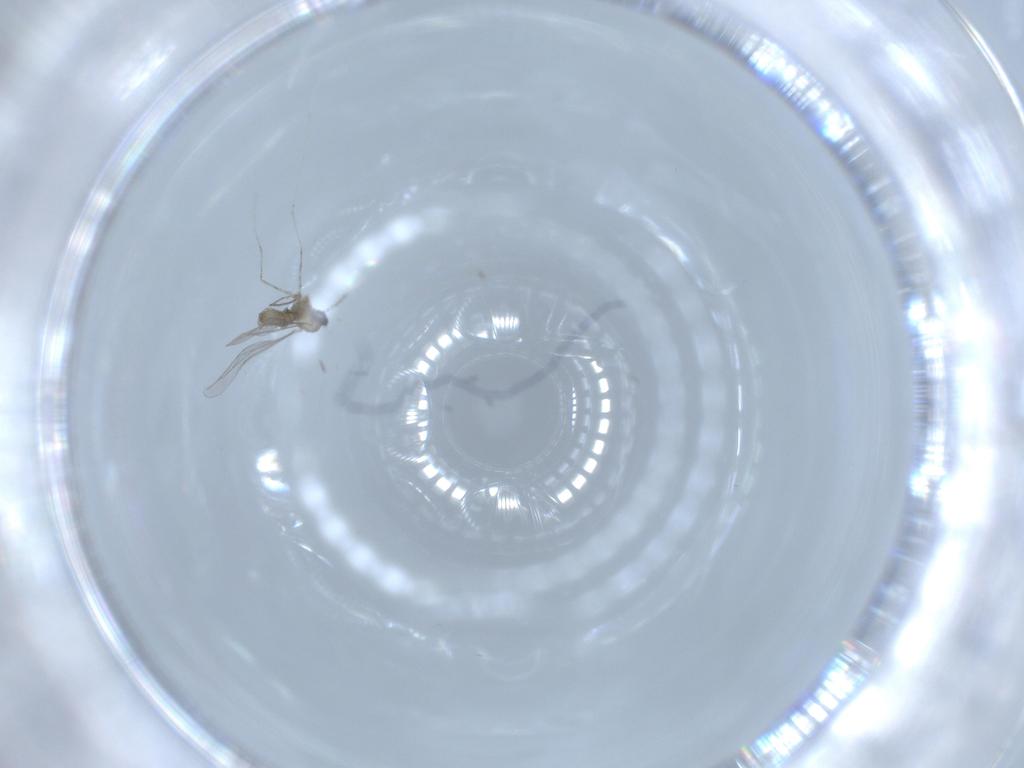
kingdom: Animalia
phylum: Arthropoda
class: Insecta
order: Diptera
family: Cecidomyiidae
